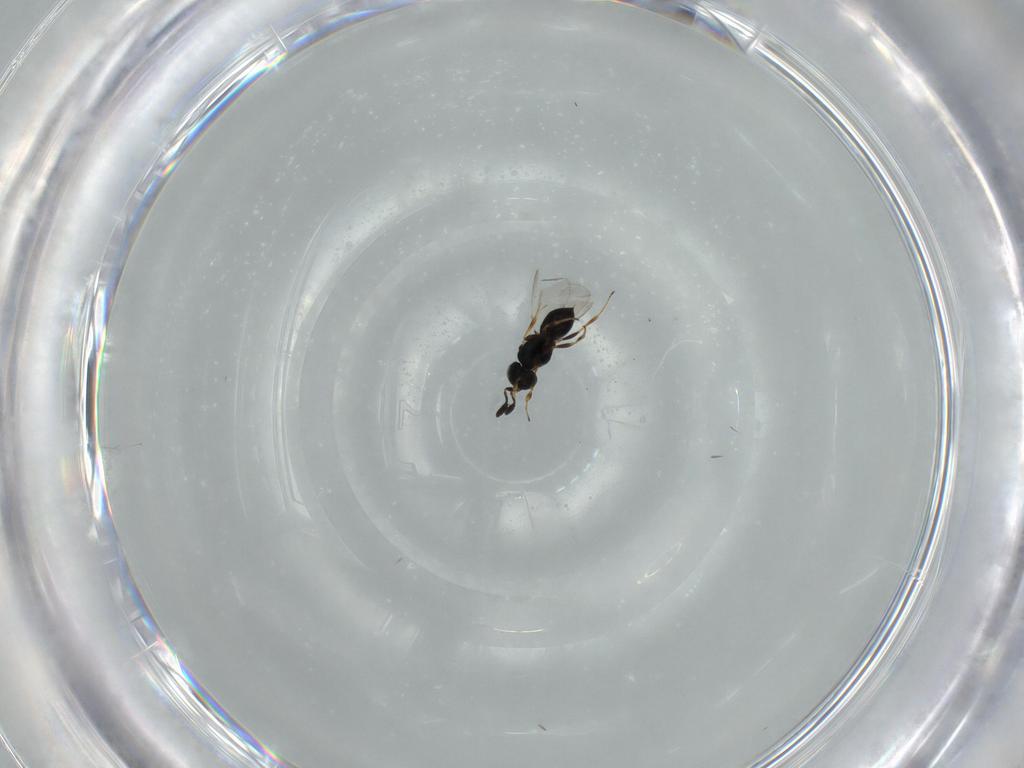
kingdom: Animalia
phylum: Arthropoda
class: Insecta
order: Hymenoptera
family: Scelionidae
